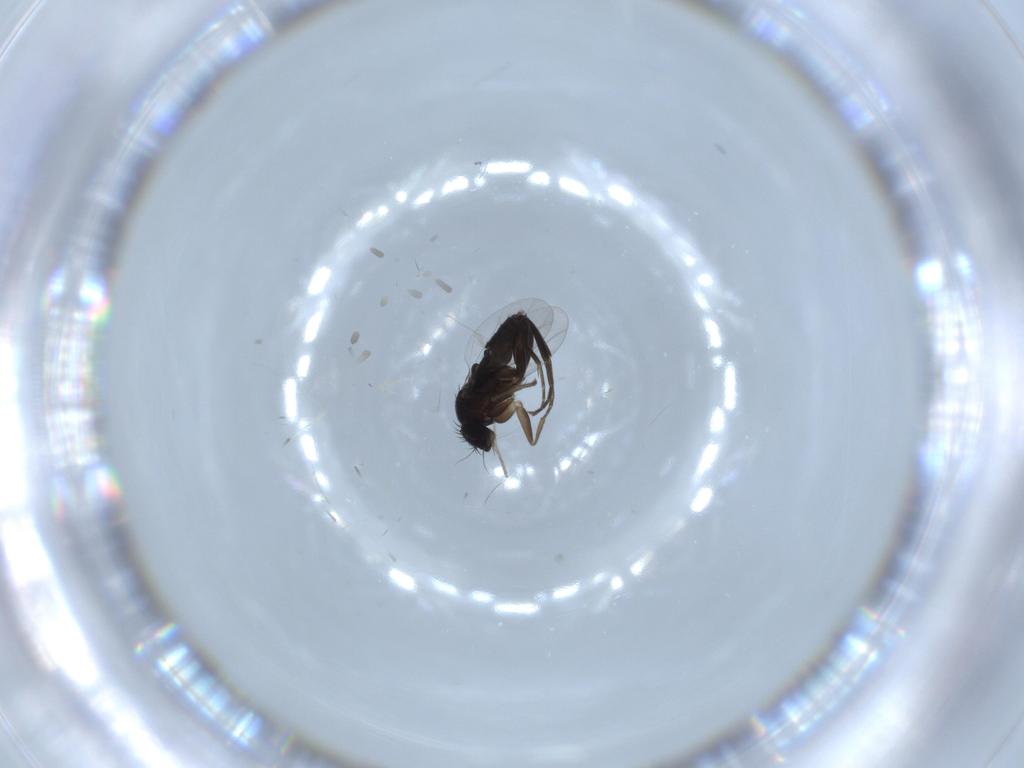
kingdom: Animalia
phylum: Arthropoda
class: Insecta
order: Diptera
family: Phoridae
